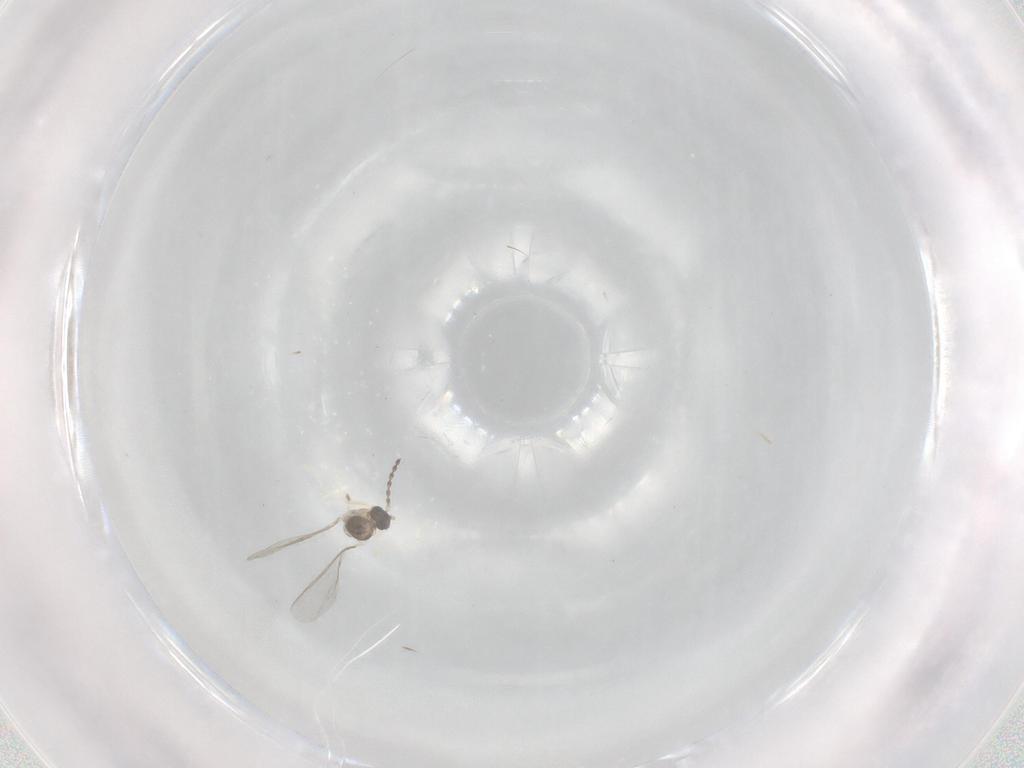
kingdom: Animalia
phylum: Arthropoda
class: Insecta
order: Diptera
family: Cecidomyiidae
